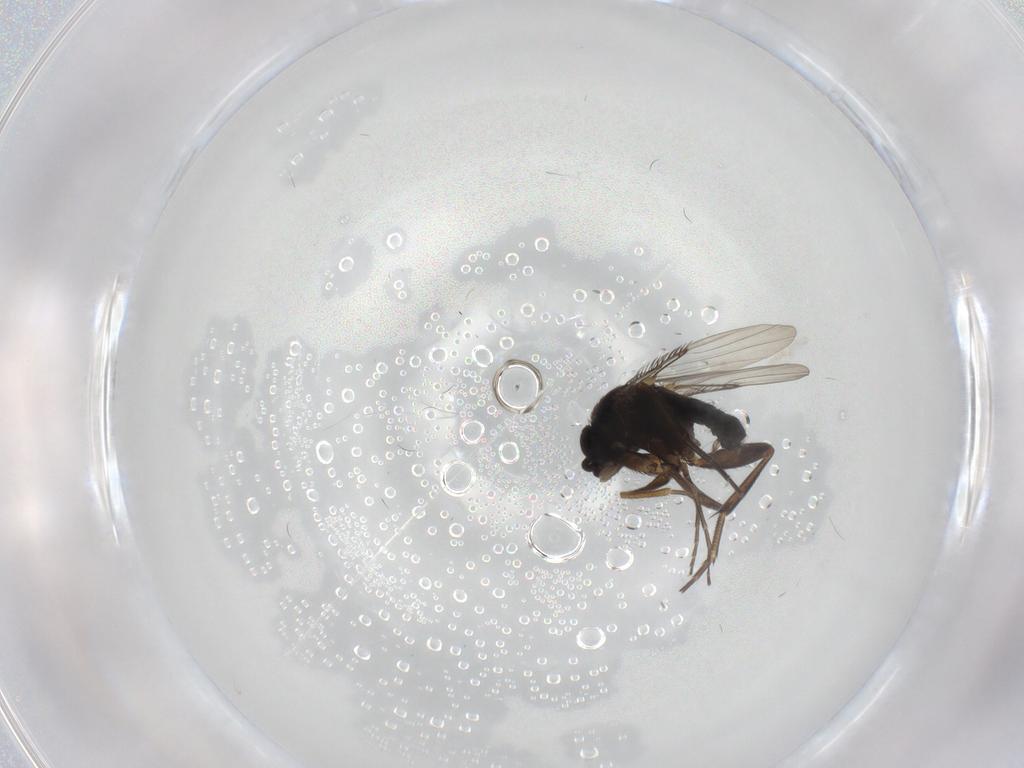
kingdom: Animalia
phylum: Arthropoda
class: Insecta
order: Diptera
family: Phoridae
